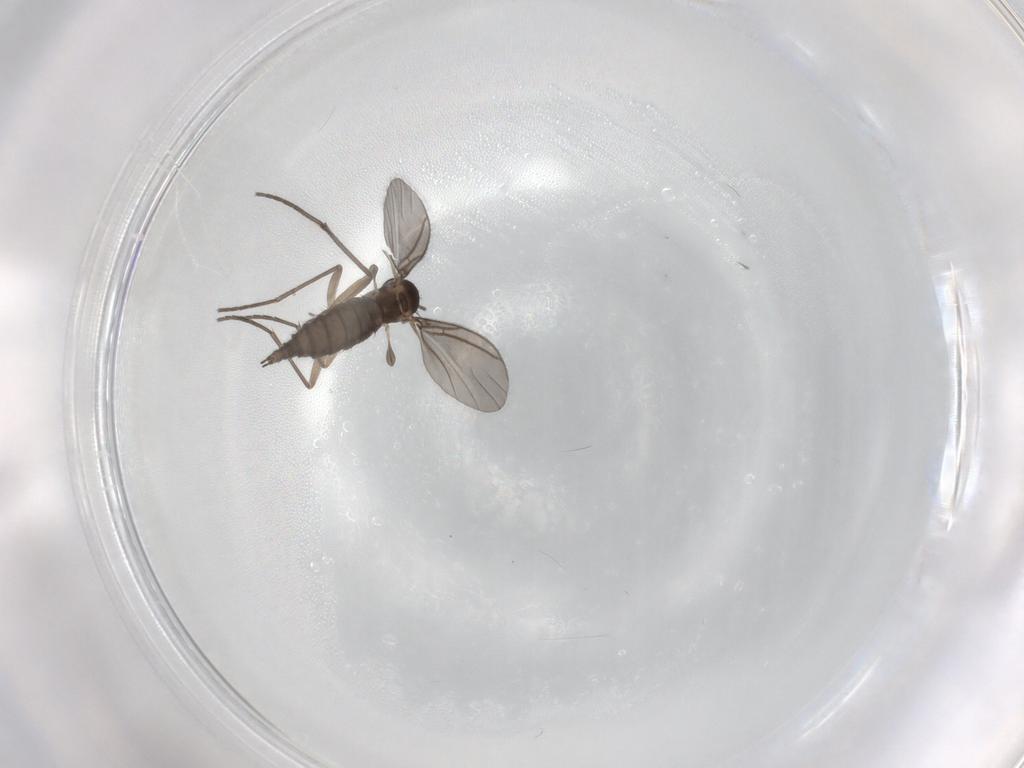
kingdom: Animalia
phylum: Arthropoda
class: Insecta
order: Diptera
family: Sciaridae
